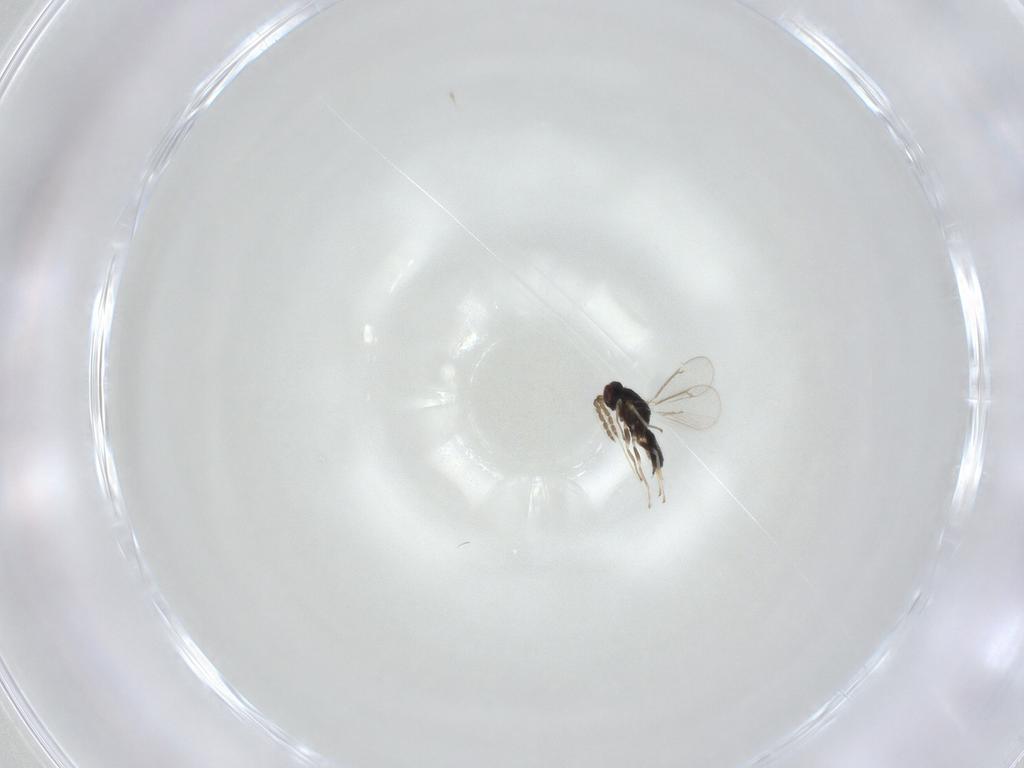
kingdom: Animalia
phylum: Arthropoda
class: Insecta
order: Hymenoptera
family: Eulophidae
